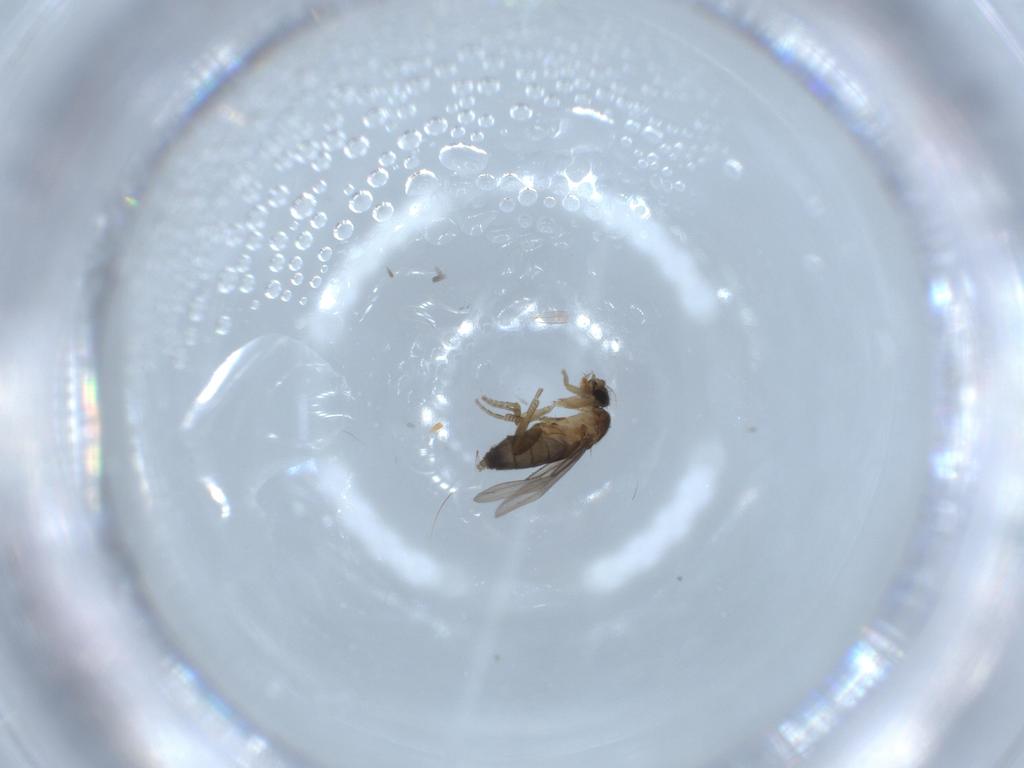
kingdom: Animalia
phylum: Arthropoda
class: Insecta
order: Diptera
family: Phoridae
